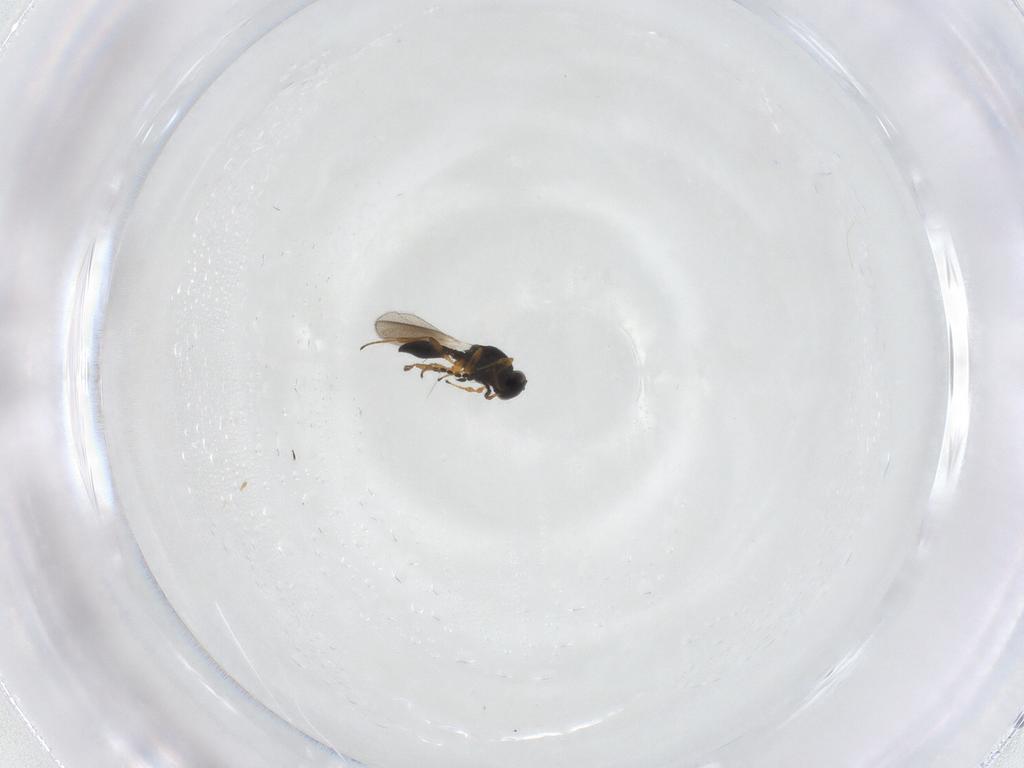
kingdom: Animalia
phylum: Arthropoda
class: Insecta
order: Hymenoptera
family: Platygastridae
